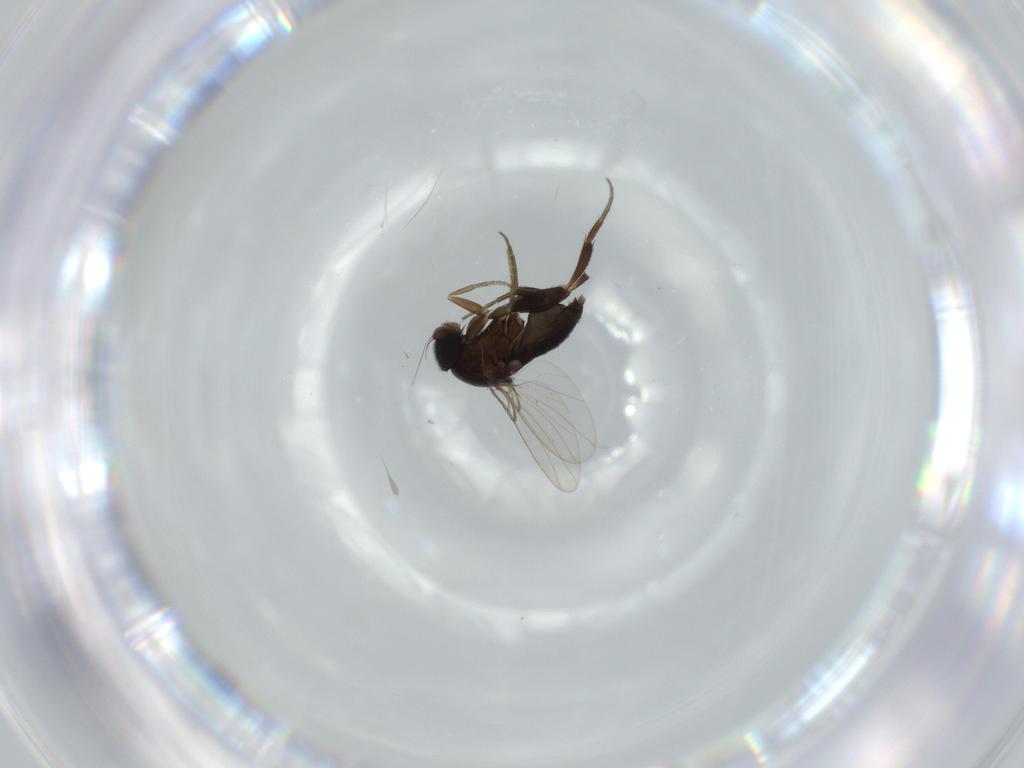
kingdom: Animalia
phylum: Arthropoda
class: Insecta
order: Diptera
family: Phoridae
